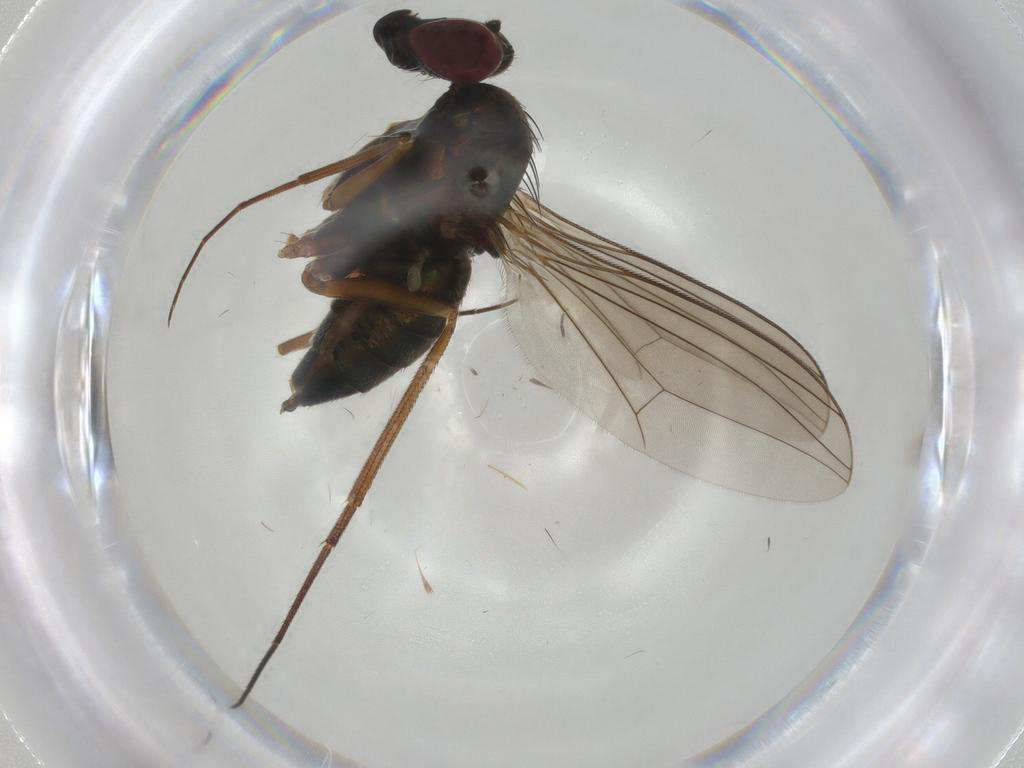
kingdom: Animalia
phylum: Arthropoda
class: Insecta
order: Diptera
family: Dolichopodidae
